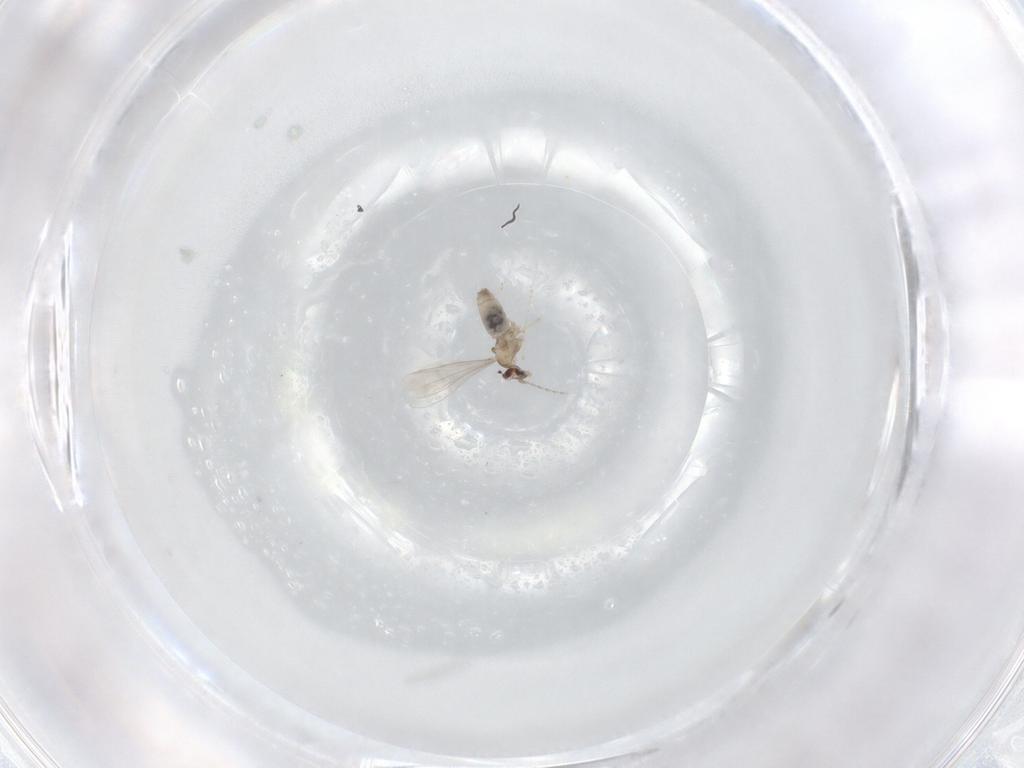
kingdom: Animalia
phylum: Arthropoda
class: Insecta
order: Diptera
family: Cecidomyiidae
